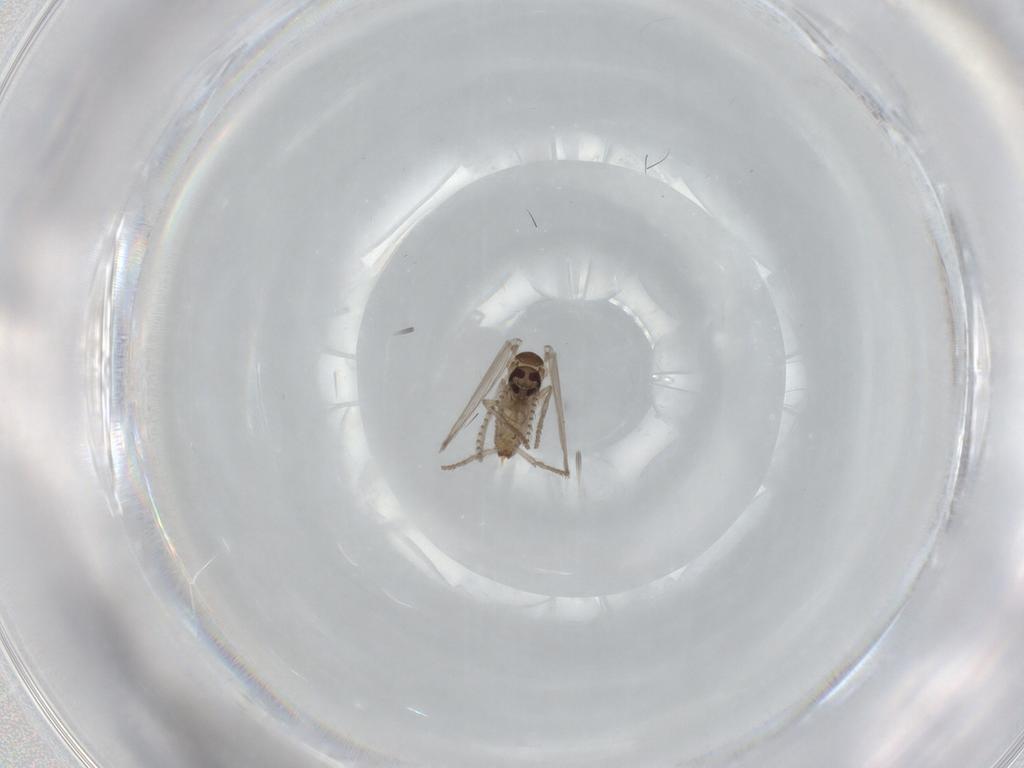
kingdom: Animalia
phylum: Arthropoda
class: Insecta
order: Diptera
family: Psychodidae
